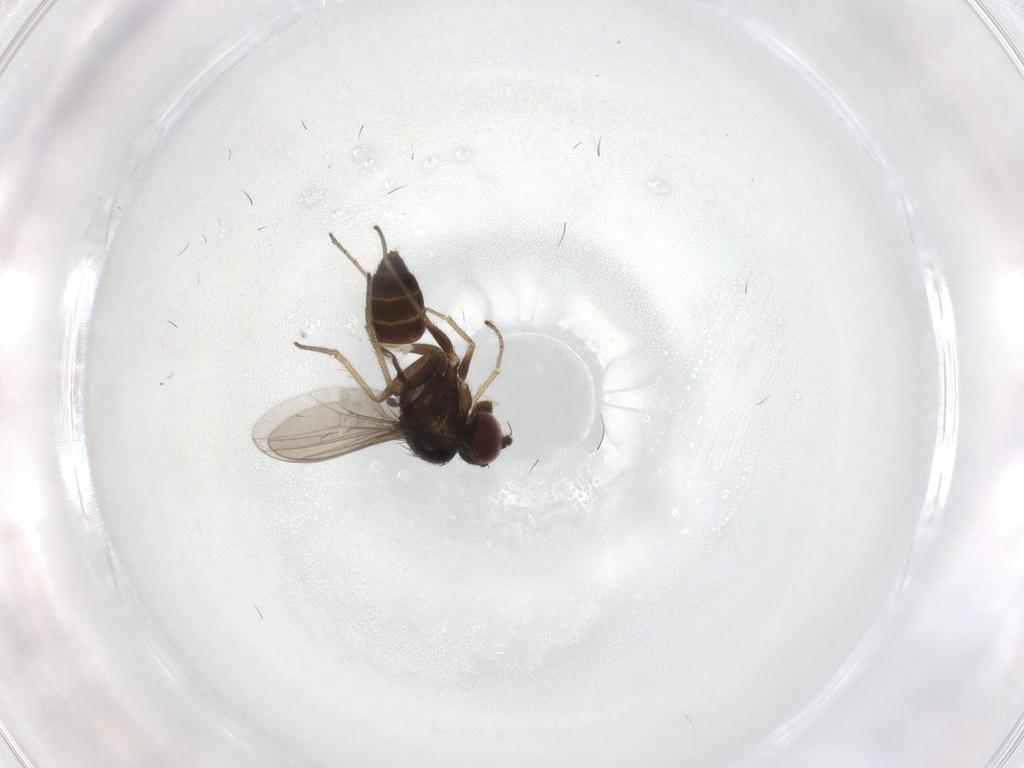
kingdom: Animalia
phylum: Arthropoda
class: Insecta
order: Diptera
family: Dolichopodidae
